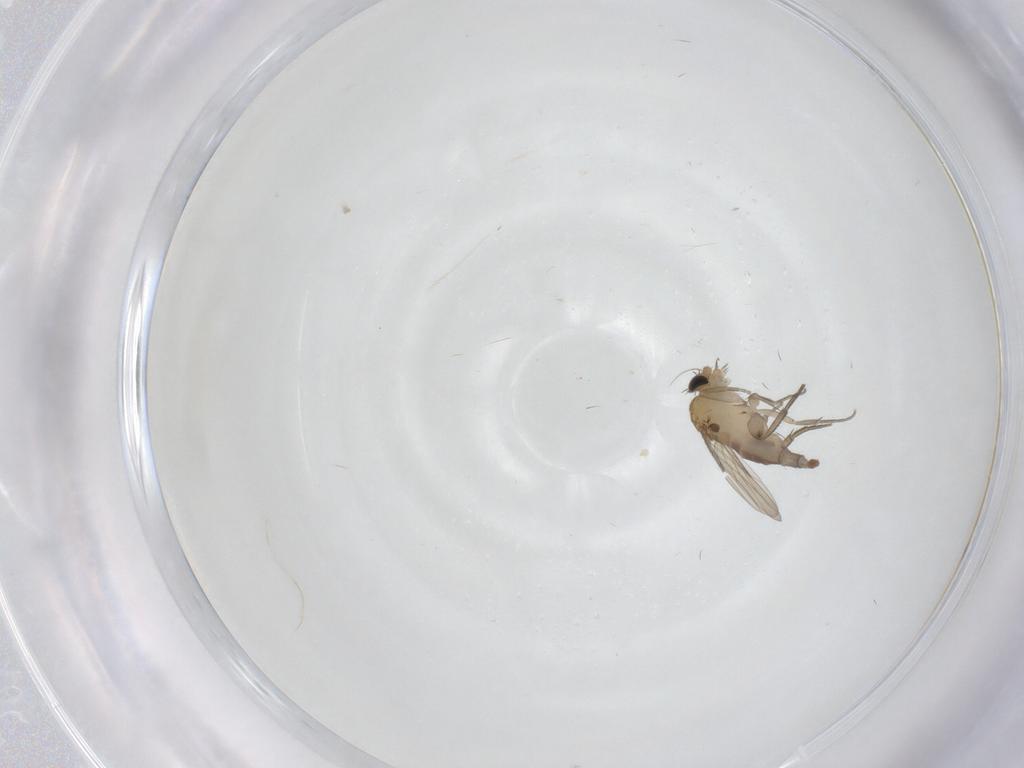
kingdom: Animalia
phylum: Arthropoda
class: Insecta
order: Diptera
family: Phoridae
